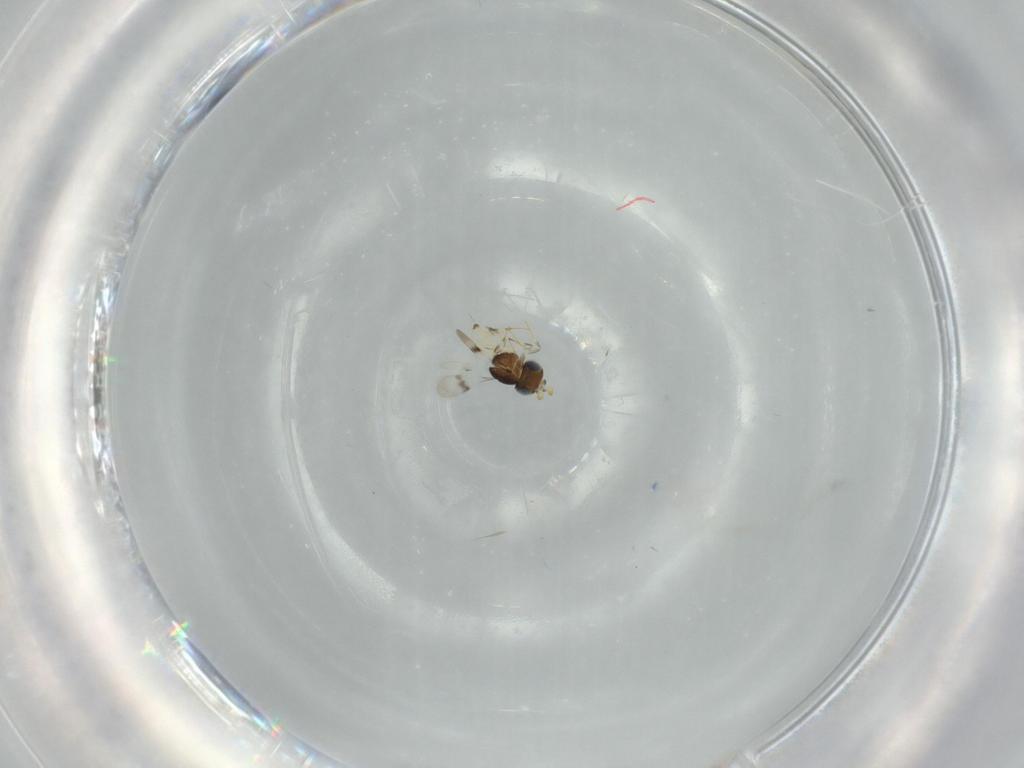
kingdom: Animalia
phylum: Arthropoda
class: Insecta
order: Hymenoptera
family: Scelionidae
